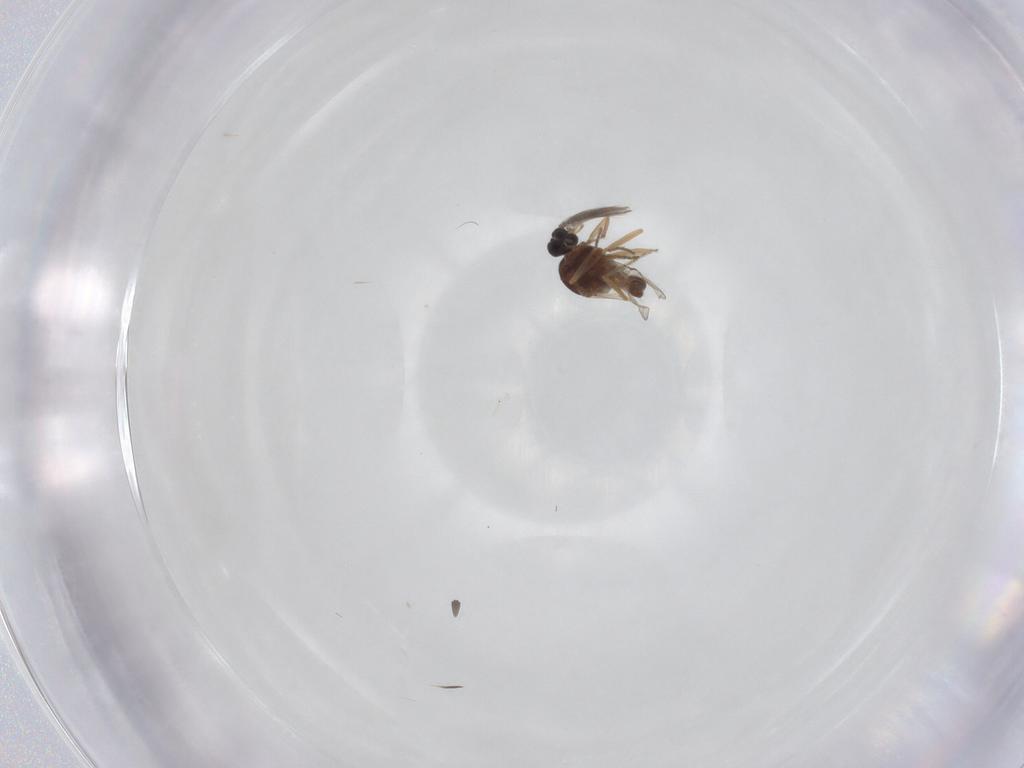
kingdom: Animalia
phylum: Arthropoda
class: Insecta
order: Diptera
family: Ceratopogonidae
